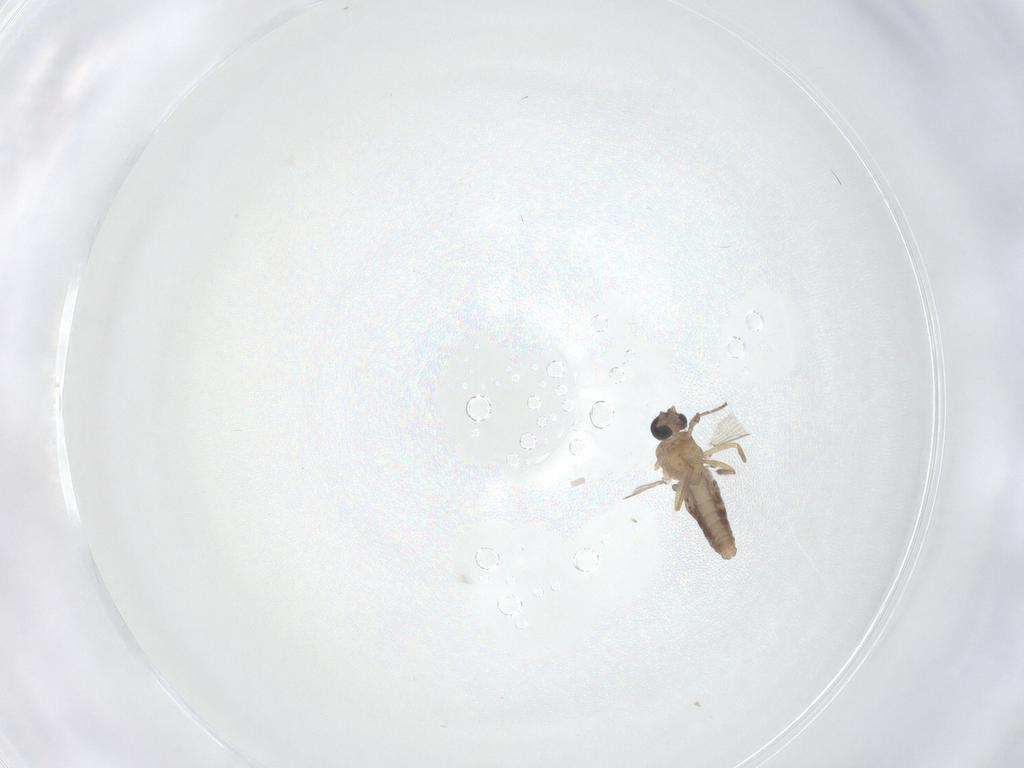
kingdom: Animalia
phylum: Arthropoda
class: Insecta
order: Diptera
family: Ceratopogonidae
